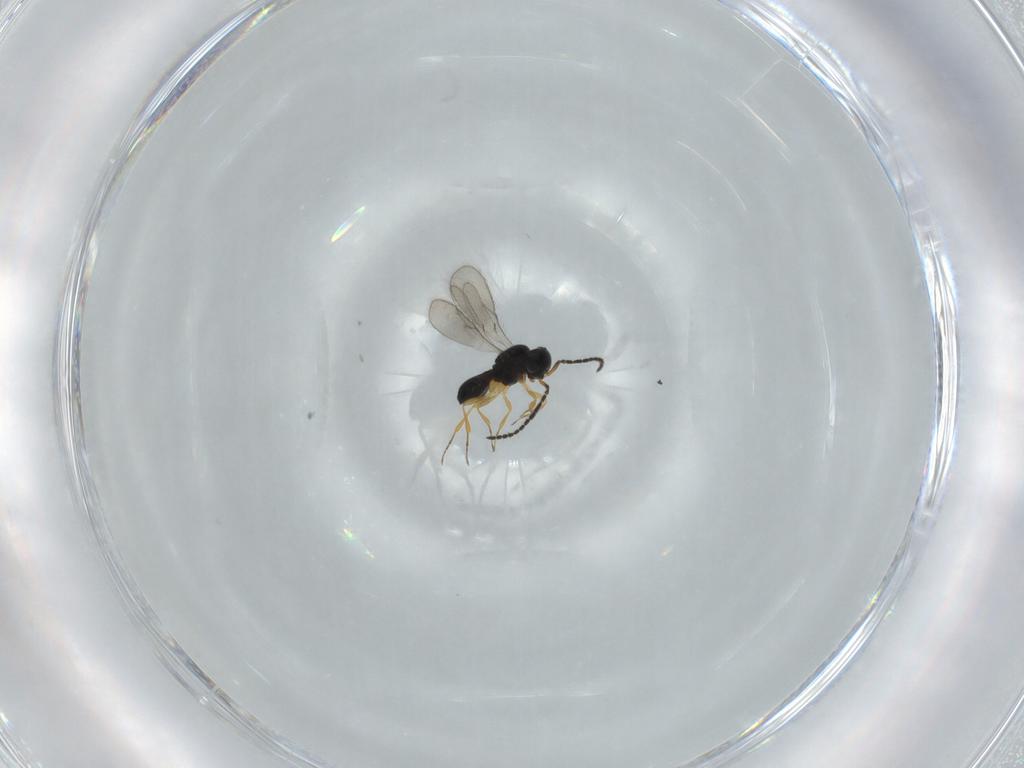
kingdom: Animalia
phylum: Arthropoda
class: Insecta
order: Hymenoptera
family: Scelionidae
